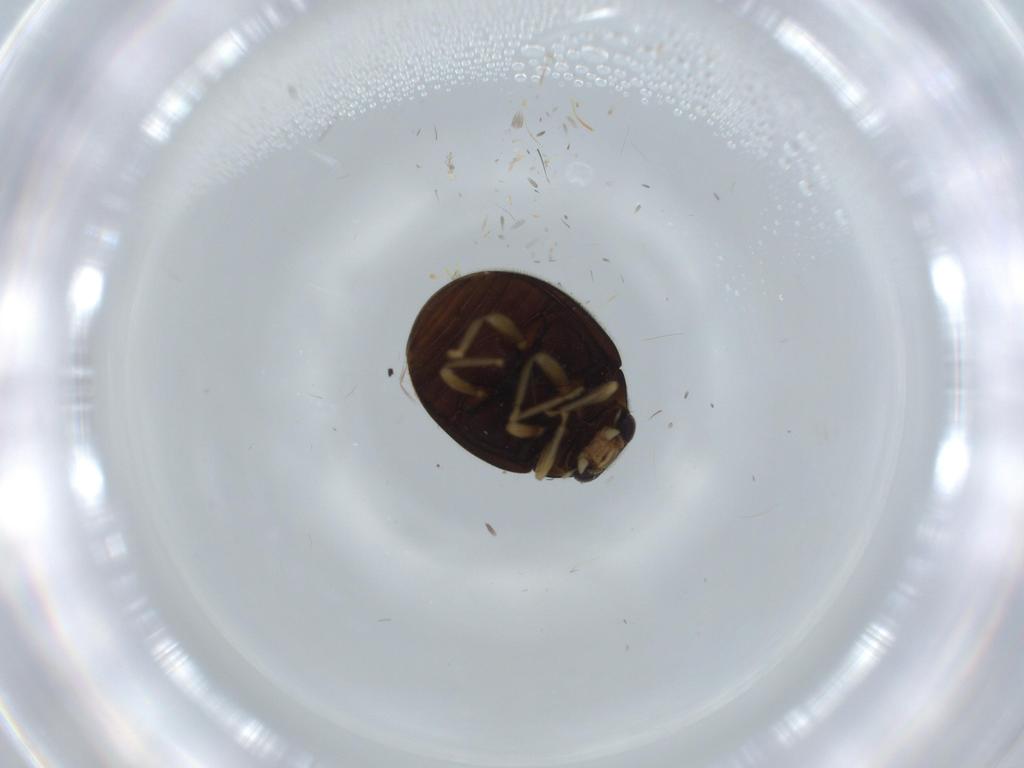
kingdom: Animalia
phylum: Arthropoda
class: Insecta
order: Coleoptera
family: Coccinellidae
